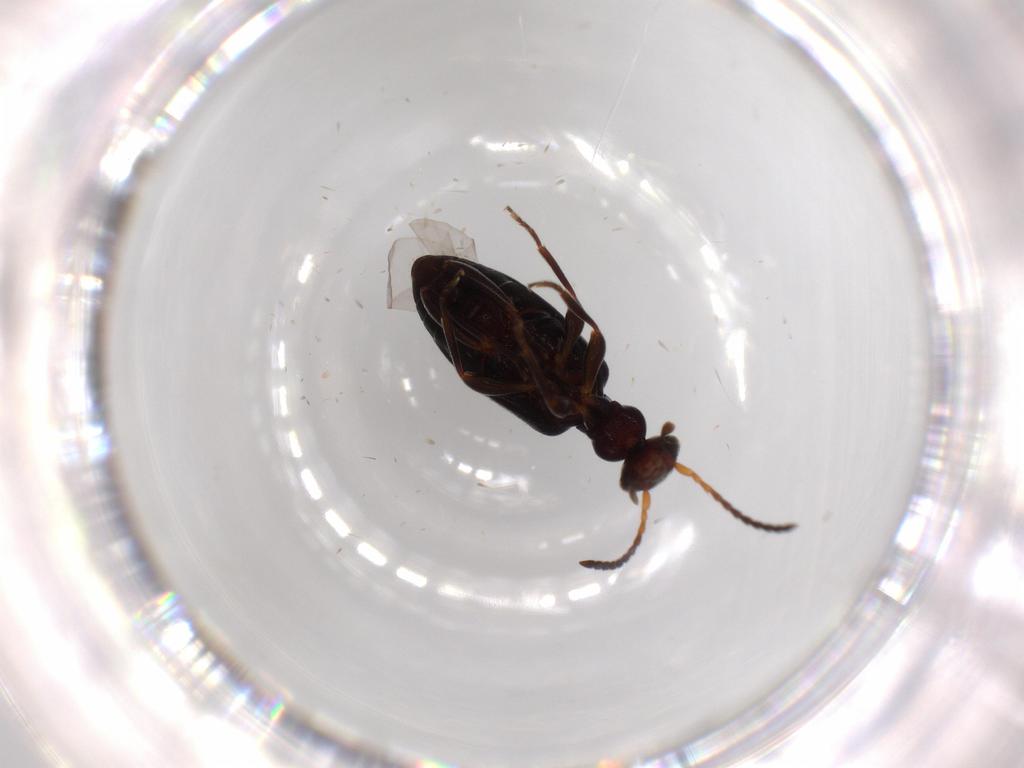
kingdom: Animalia
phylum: Arthropoda
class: Insecta
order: Coleoptera
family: Anthicidae
